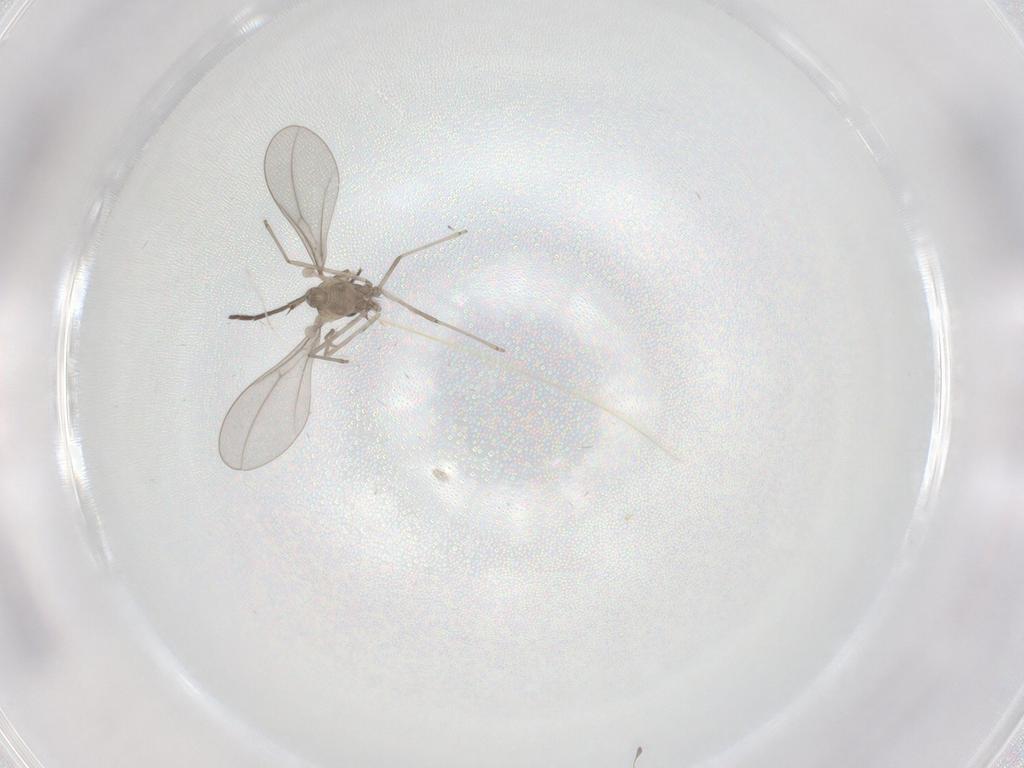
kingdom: Animalia
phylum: Arthropoda
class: Insecta
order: Diptera
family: Cecidomyiidae
